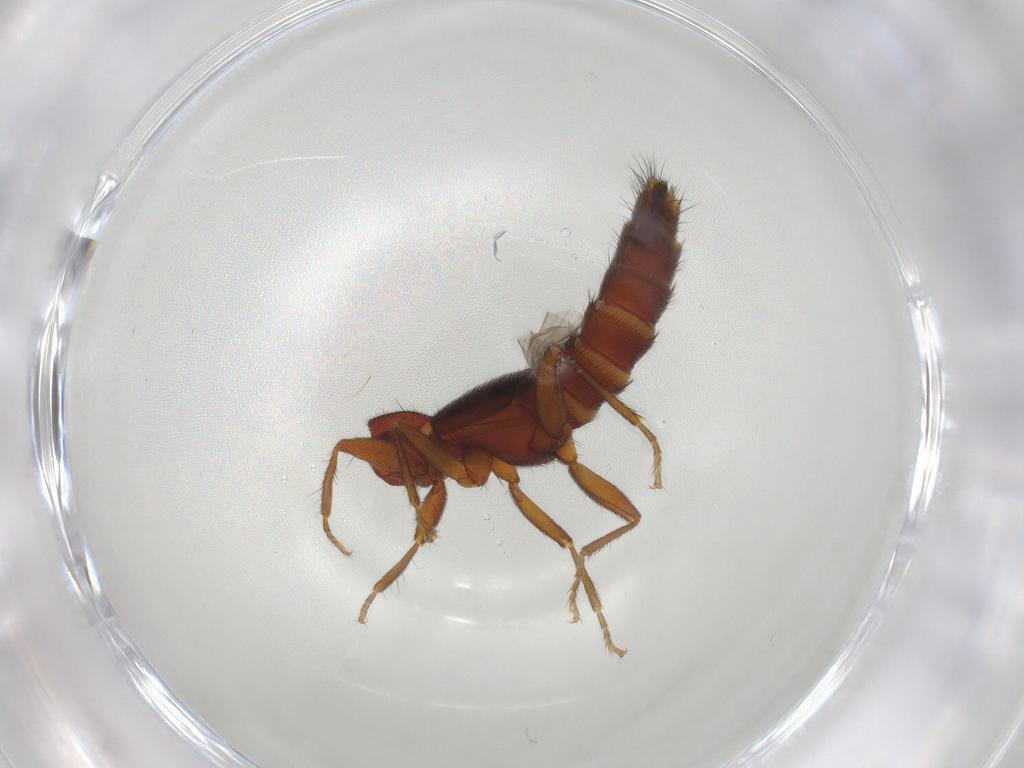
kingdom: Animalia
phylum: Arthropoda
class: Insecta
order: Coleoptera
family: Staphylinidae
